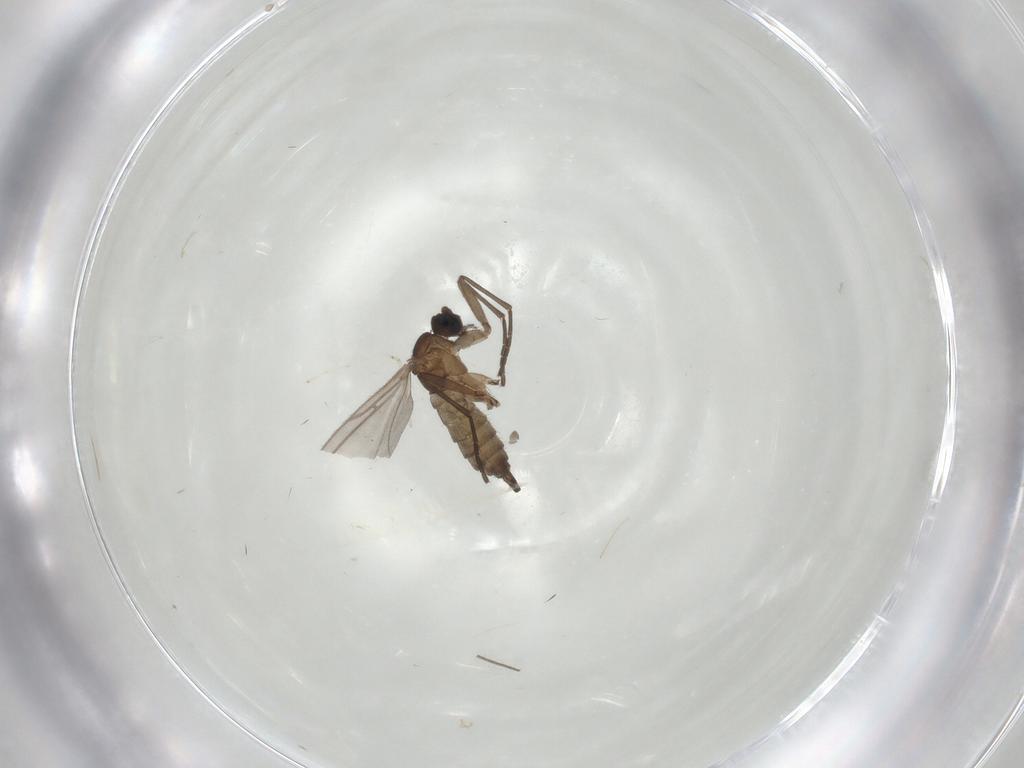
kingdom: Animalia
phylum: Arthropoda
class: Insecta
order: Diptera
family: Cecidomyiidae
